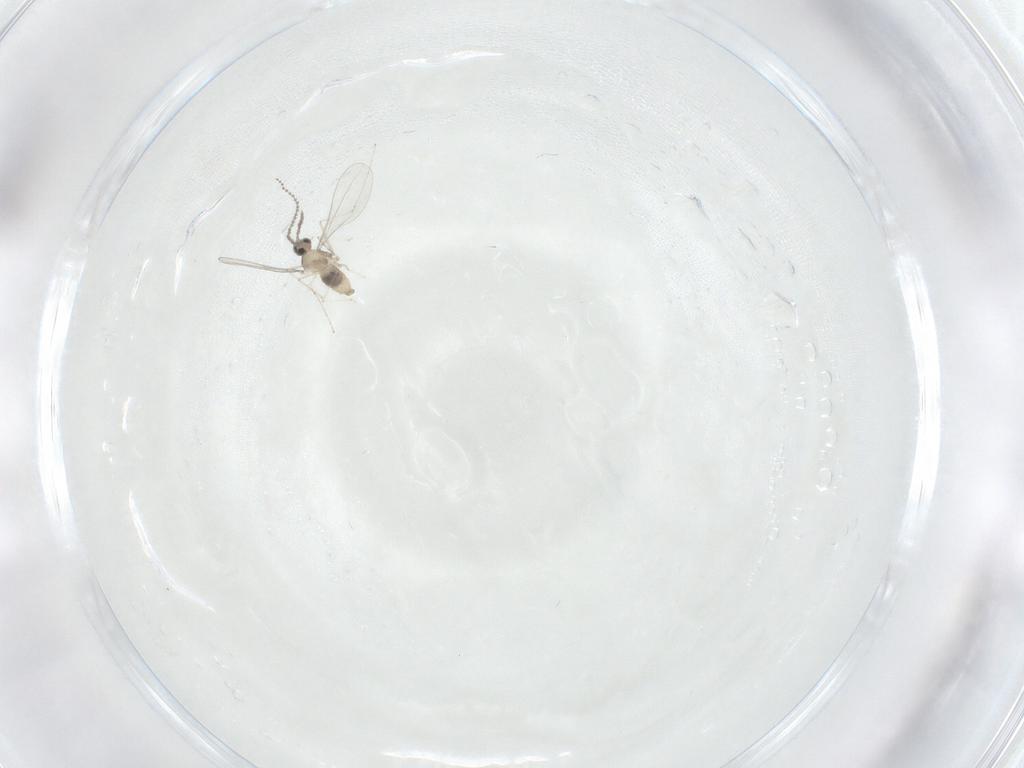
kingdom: Animalia
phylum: Arthropoda
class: Insecta
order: Diptera
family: Cecidomyiidae
